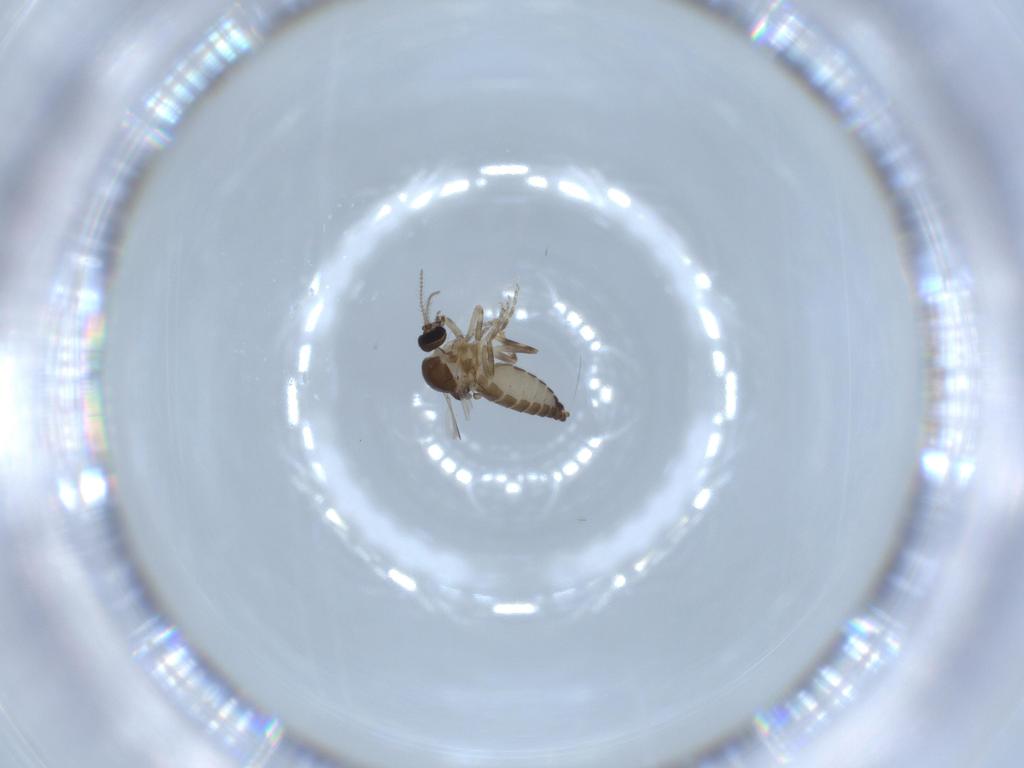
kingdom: Animalia
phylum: Arthropoda
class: Insecta
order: Diptera
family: Ceratopogonidae
